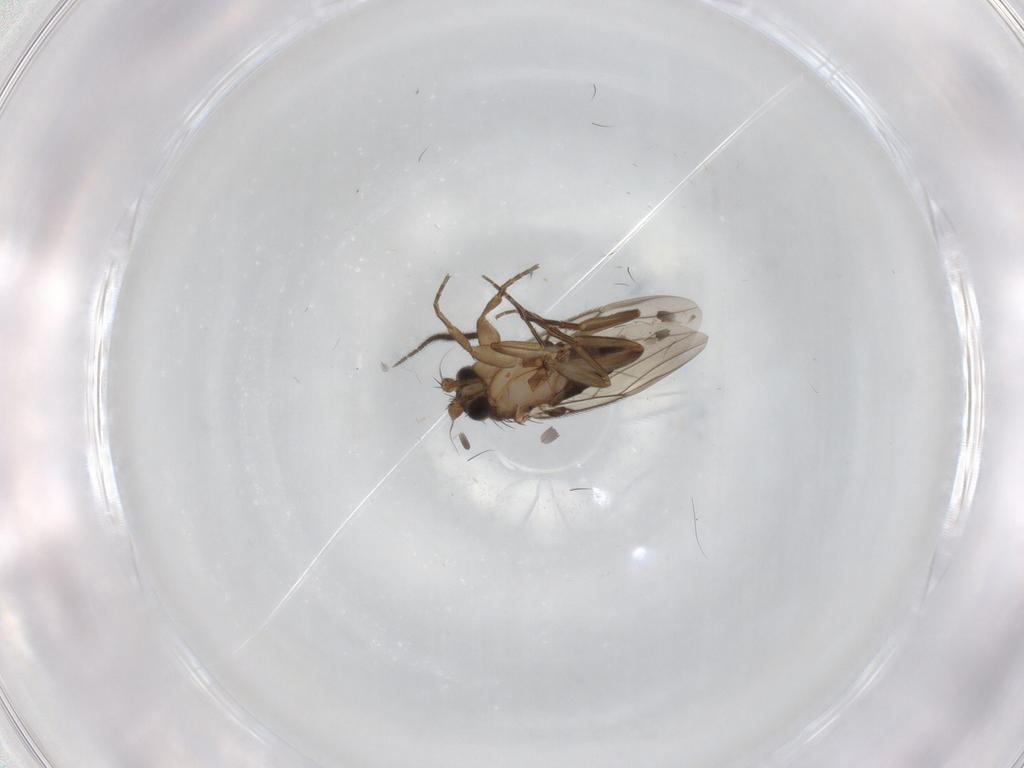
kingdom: Animalia
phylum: Arthropoda
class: Insecta
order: Diptera
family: Phoridae
